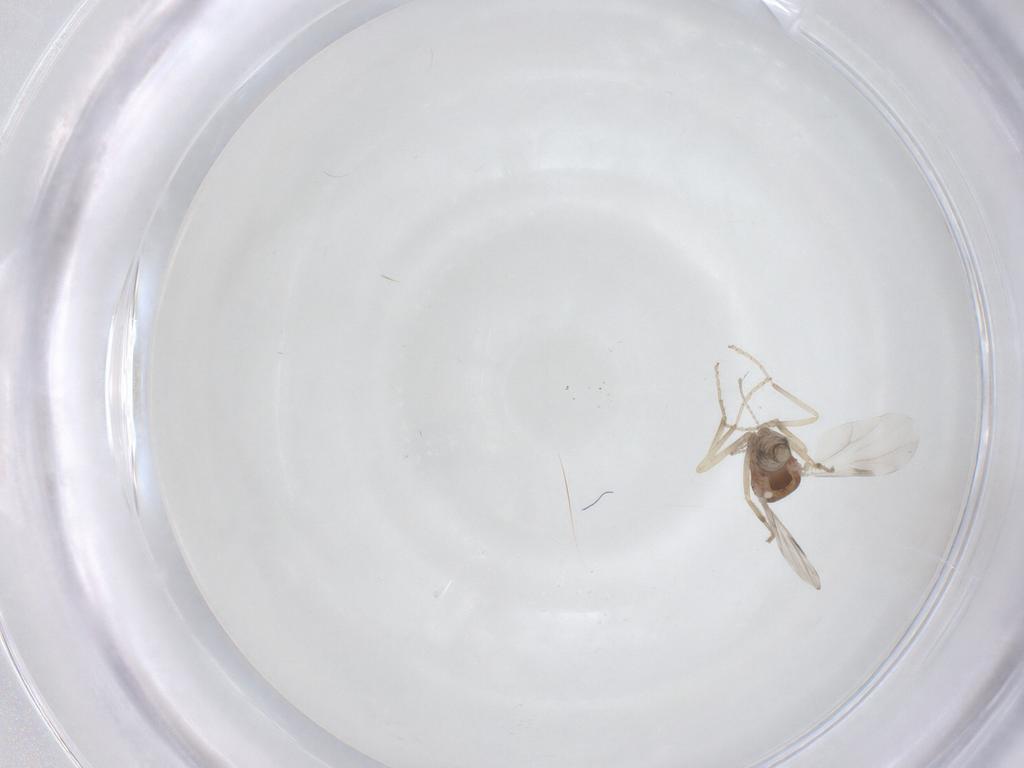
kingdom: Animalia
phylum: Arthropoda
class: Insecta
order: Diptera
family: Ceratopogonidae
